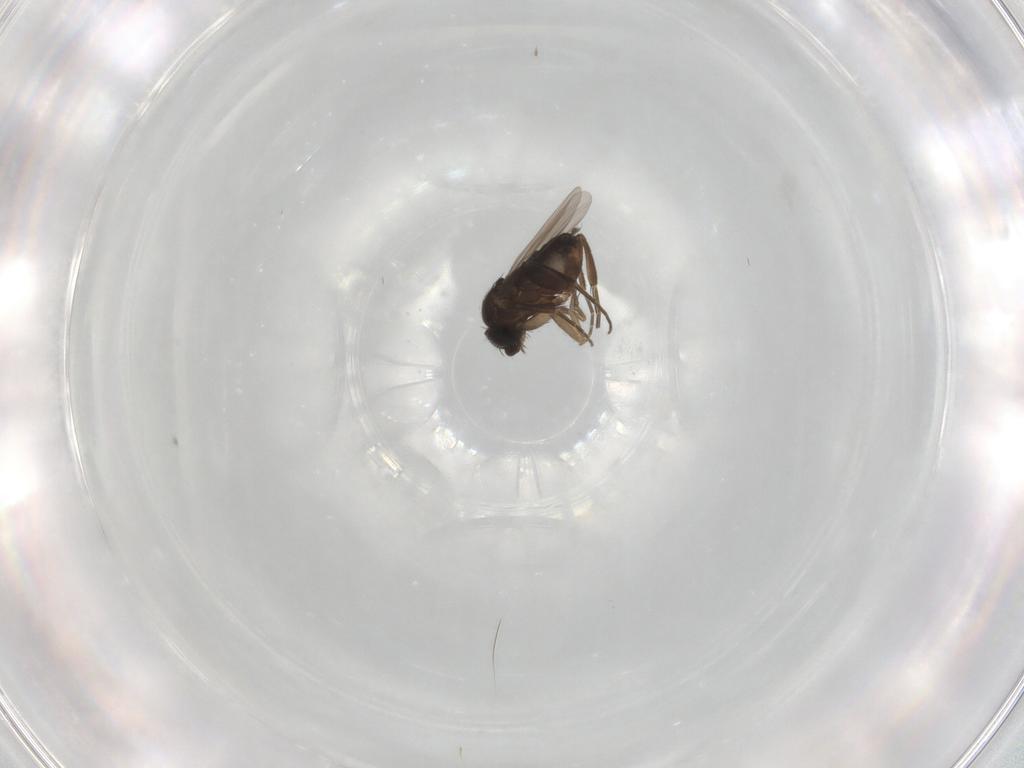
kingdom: Animalia
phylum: Arthropoda
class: Insecta
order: Diptera
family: Phoridae
